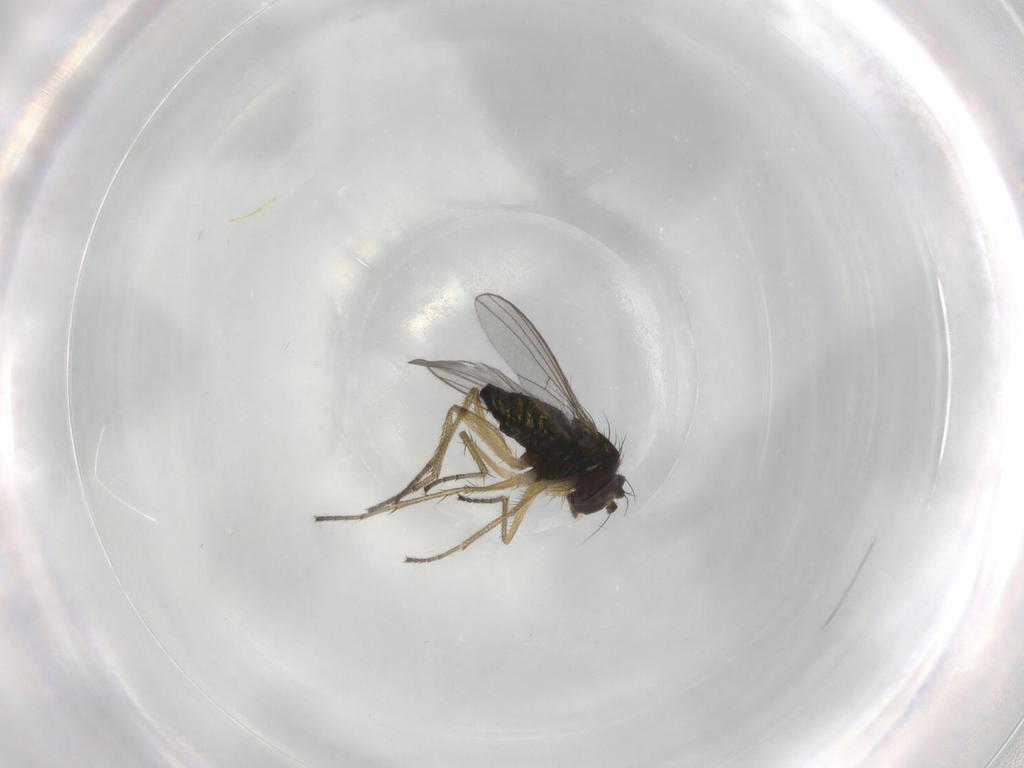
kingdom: Animalia
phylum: Arthropoda
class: Insecta
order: Diptera
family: Dolichopodidae
